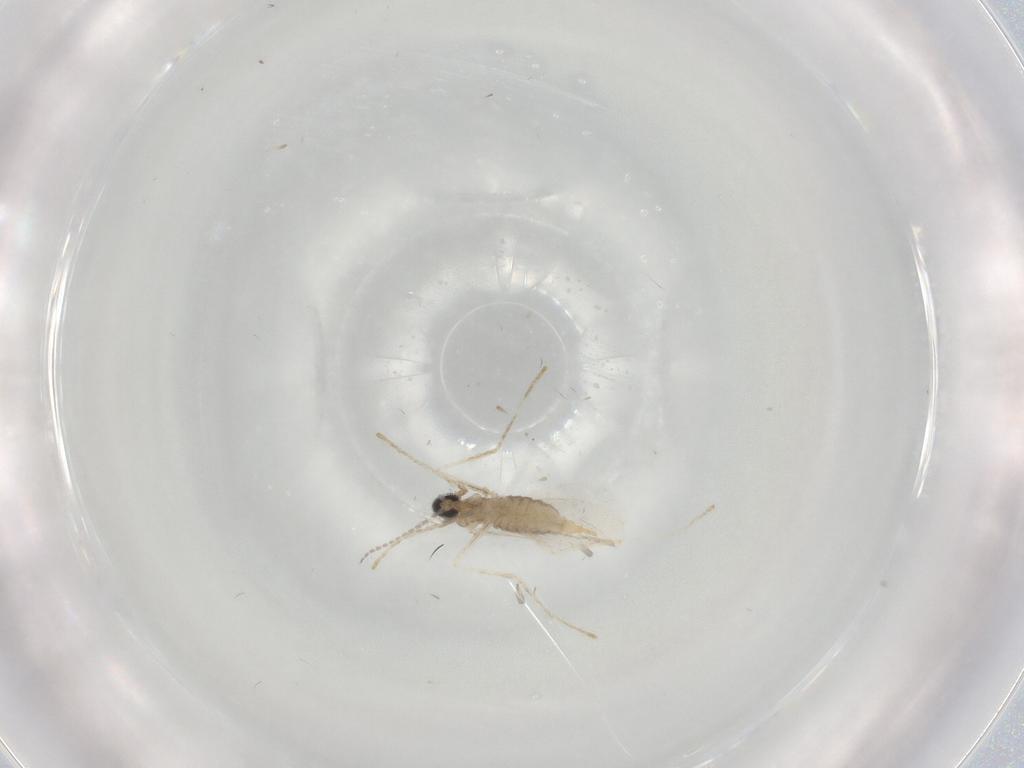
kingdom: Animalia
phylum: Arthropoda
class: Insecta
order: Diptera
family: Cecidomyiidae
